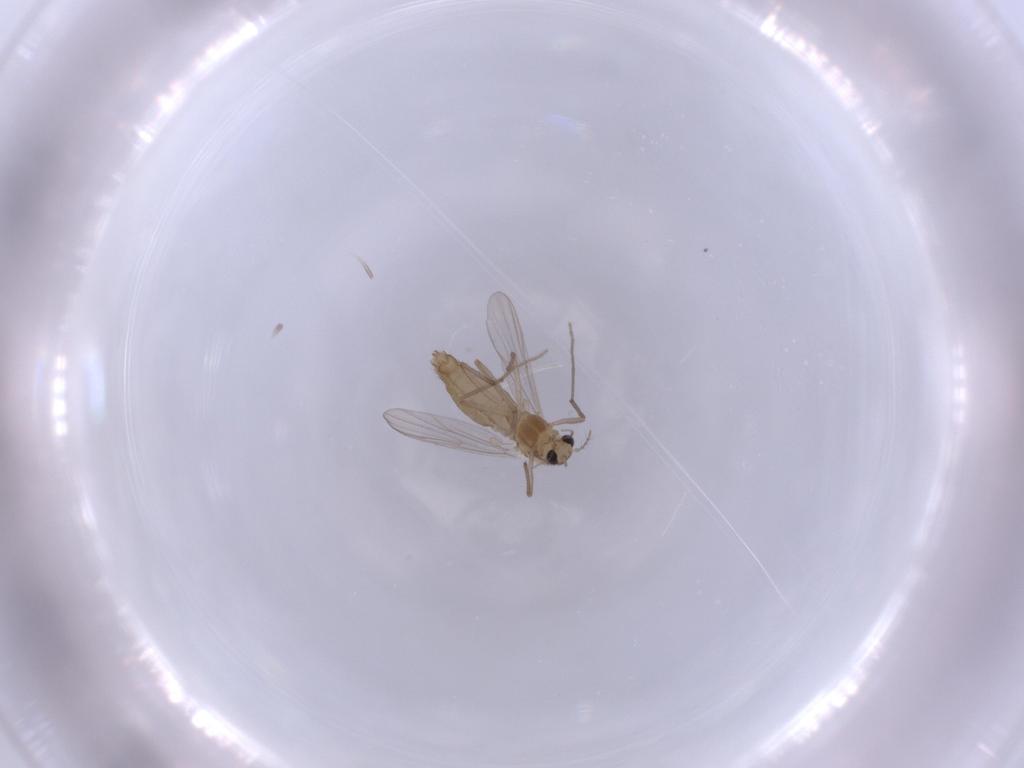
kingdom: Animalia
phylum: Arthropoda
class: Insecta
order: Diptera
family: Chironomidae
